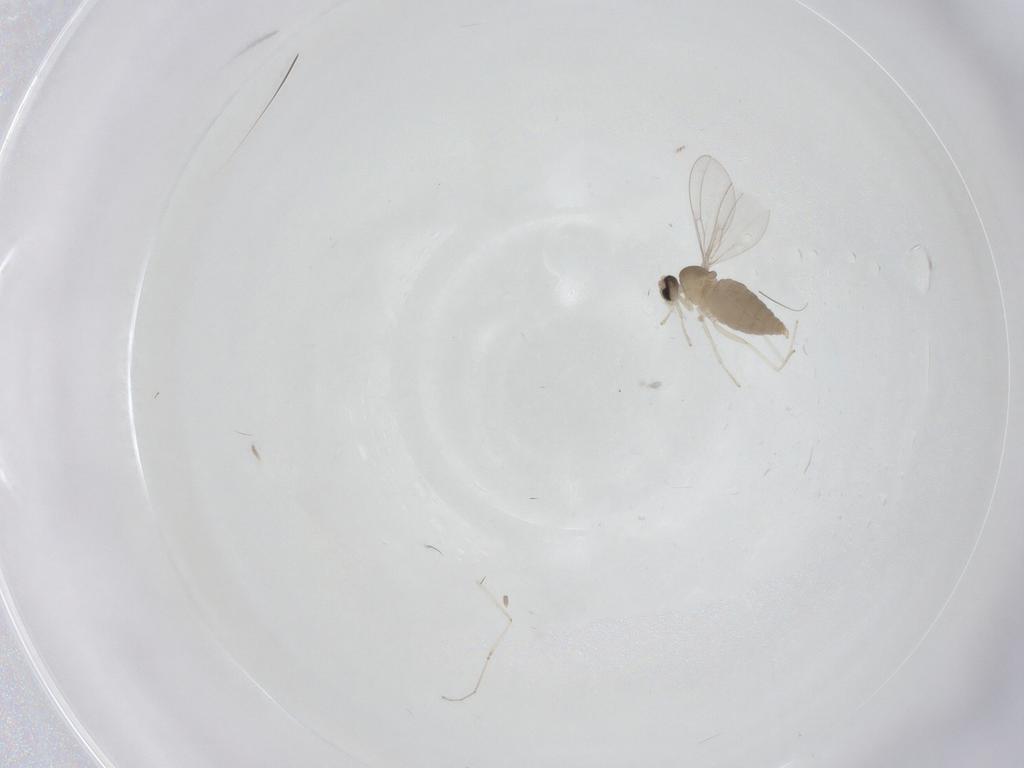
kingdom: Animalia
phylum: Arthropoda
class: Insecta
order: Diptera
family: Cecidomyiidae
